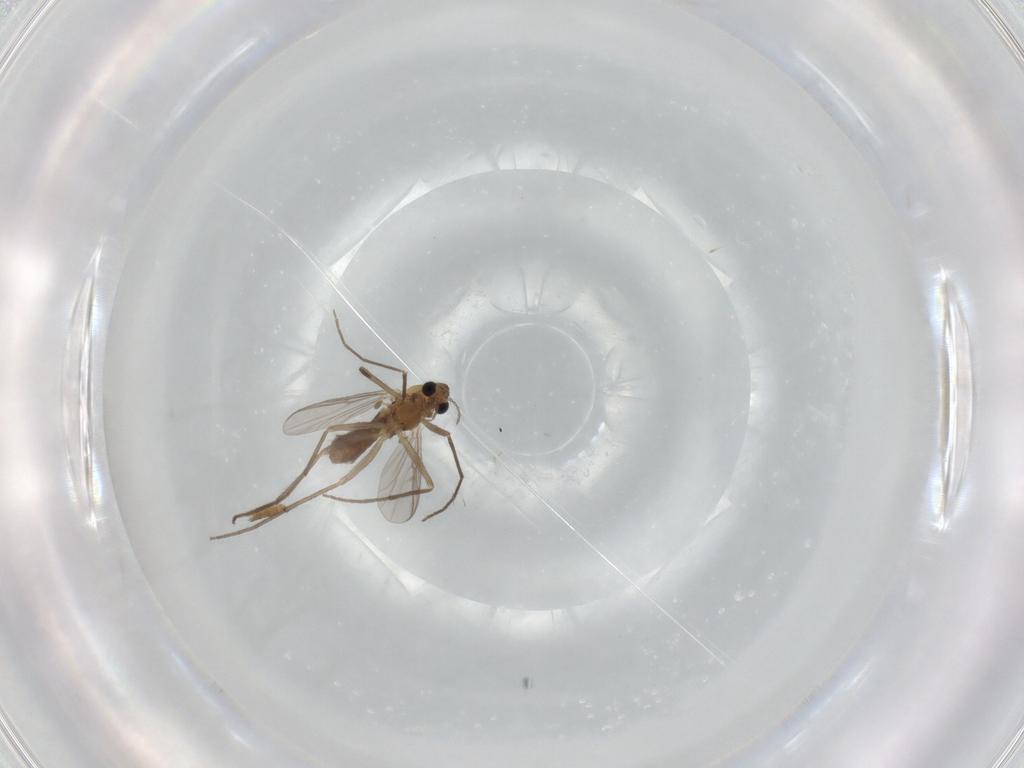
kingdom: Animalia
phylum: Arthropoda
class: Insecta
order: Diptera
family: Chironomidae
